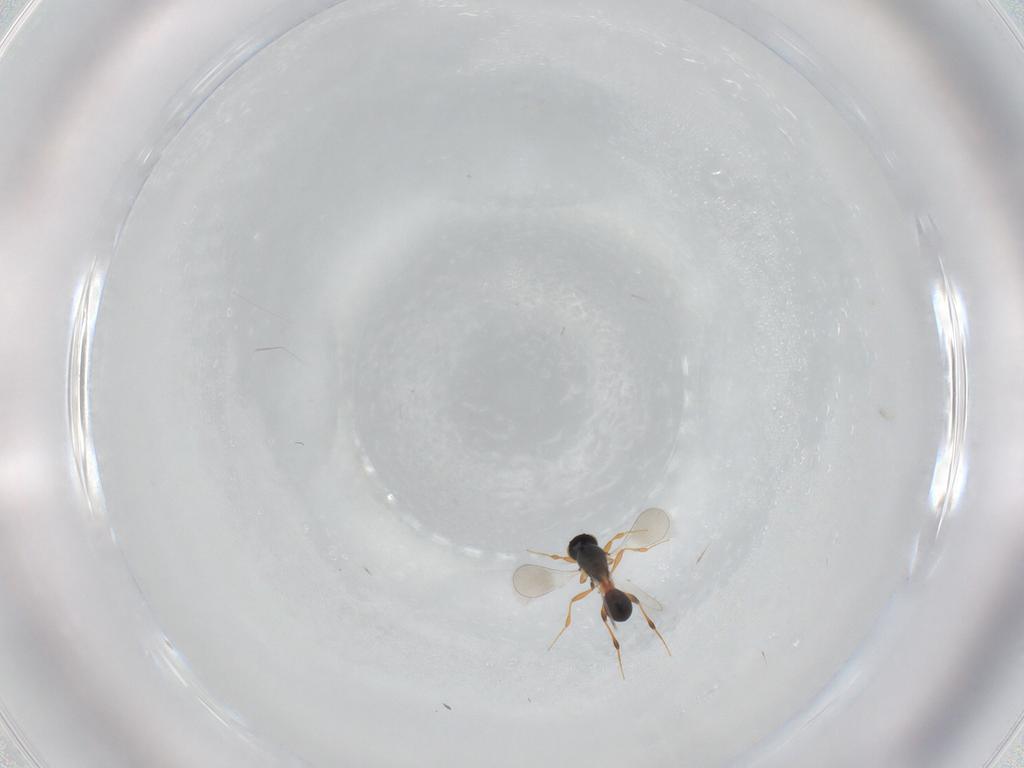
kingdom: Animalia
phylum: Arthropoda
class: Insecta
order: Hymenoptera
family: Platygastridae
